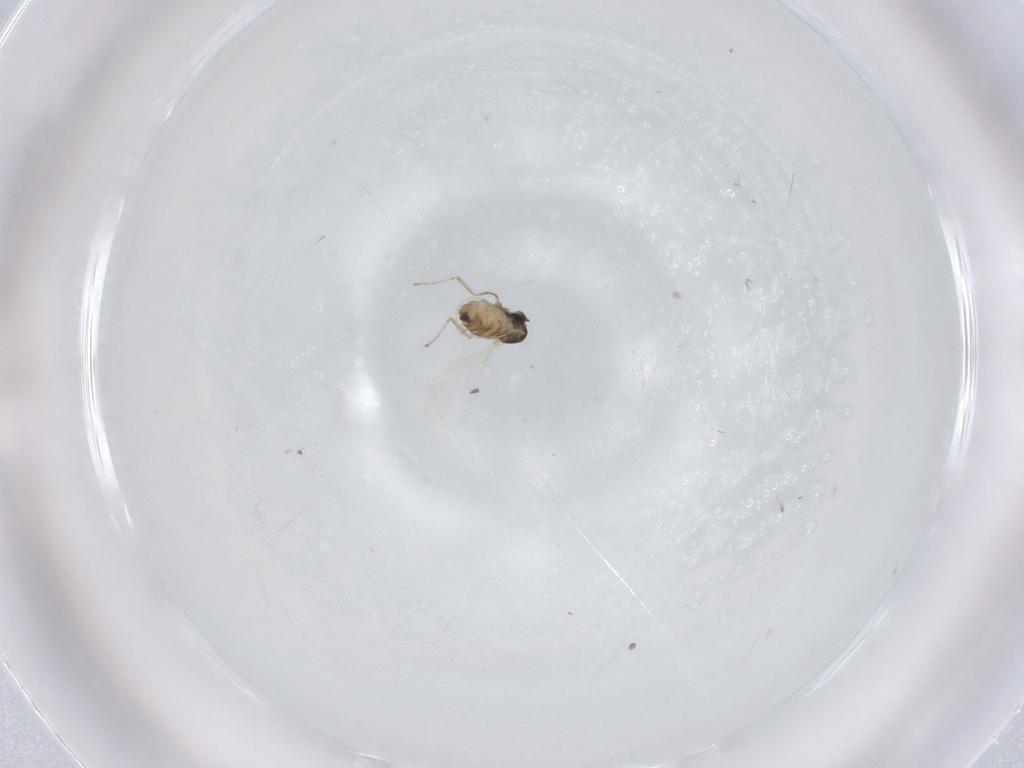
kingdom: Animalia
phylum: Arthropoda
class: Insecta
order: Diptera
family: Cecidomyiidae
